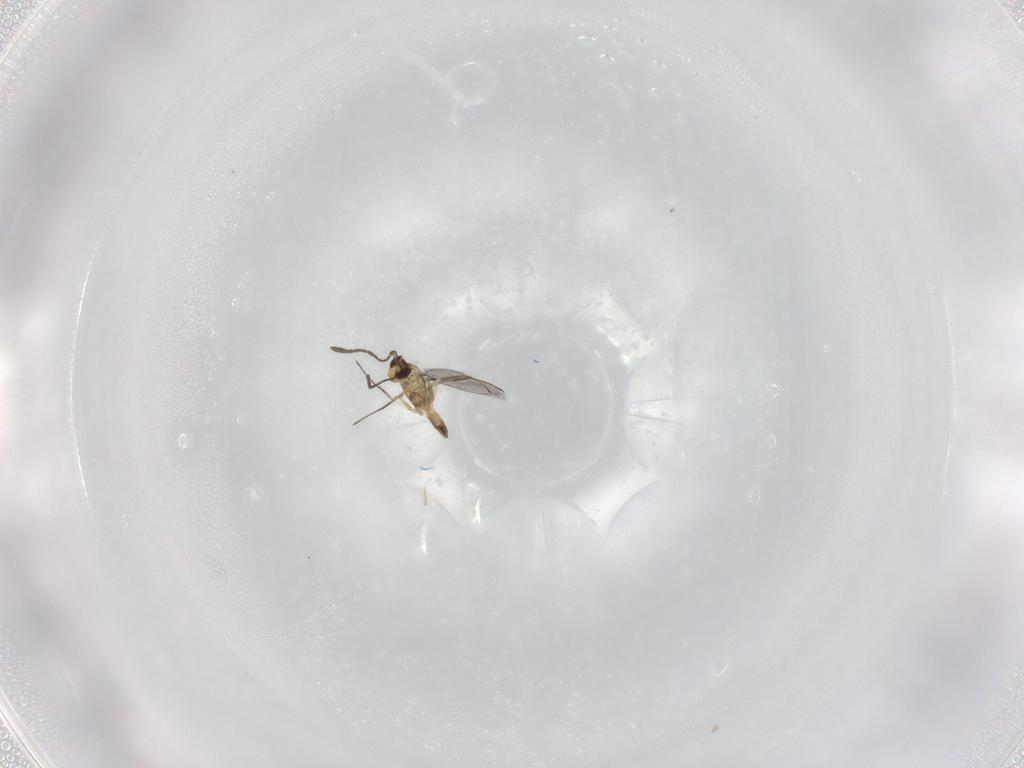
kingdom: Animalia
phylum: Arthropoda
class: Insecta
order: Hymenoptera
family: Mymaridae
